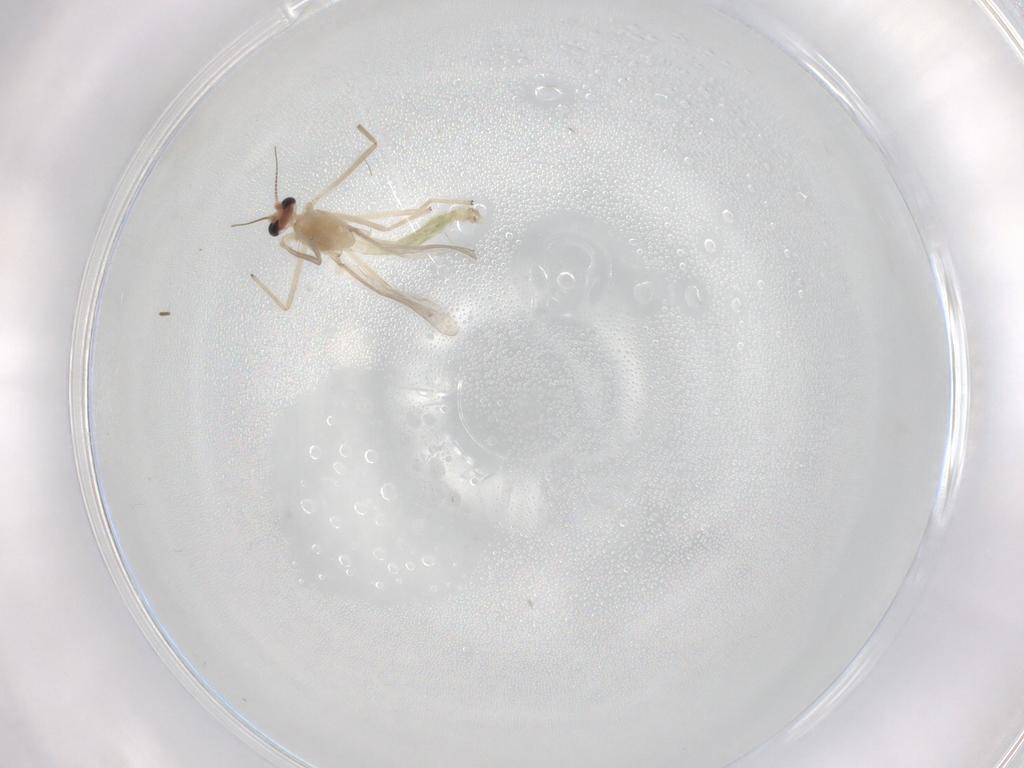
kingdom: Animalia
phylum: Arthropoda
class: Insecta
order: Diptera
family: Chironomidae
